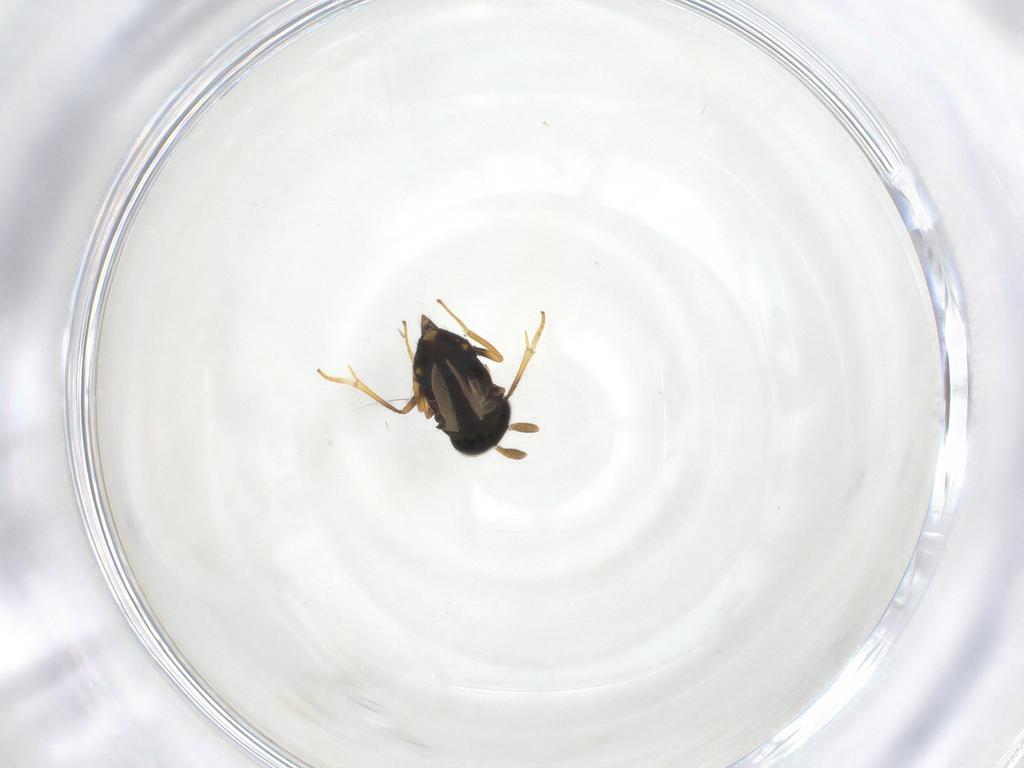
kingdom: Animalia
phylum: Arthropoda
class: Insecta
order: Hymenoptera
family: Encyrtidae
